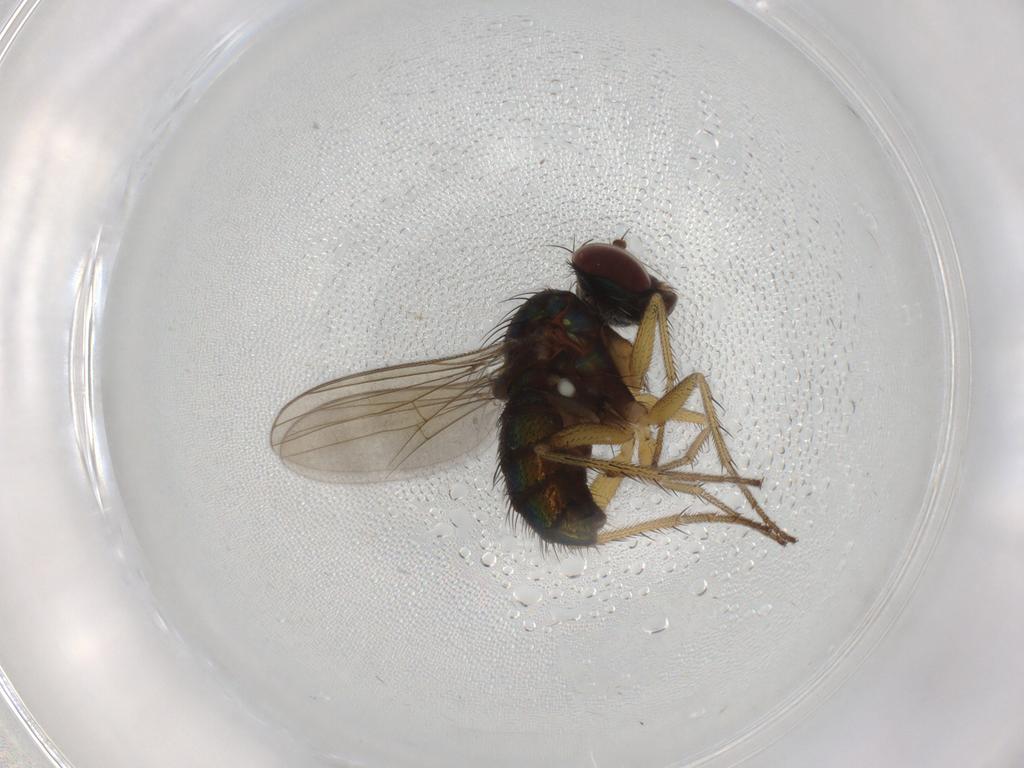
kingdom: Animalia
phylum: Arthropoda
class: Insecta
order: Diptera
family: Dolichopodidae
